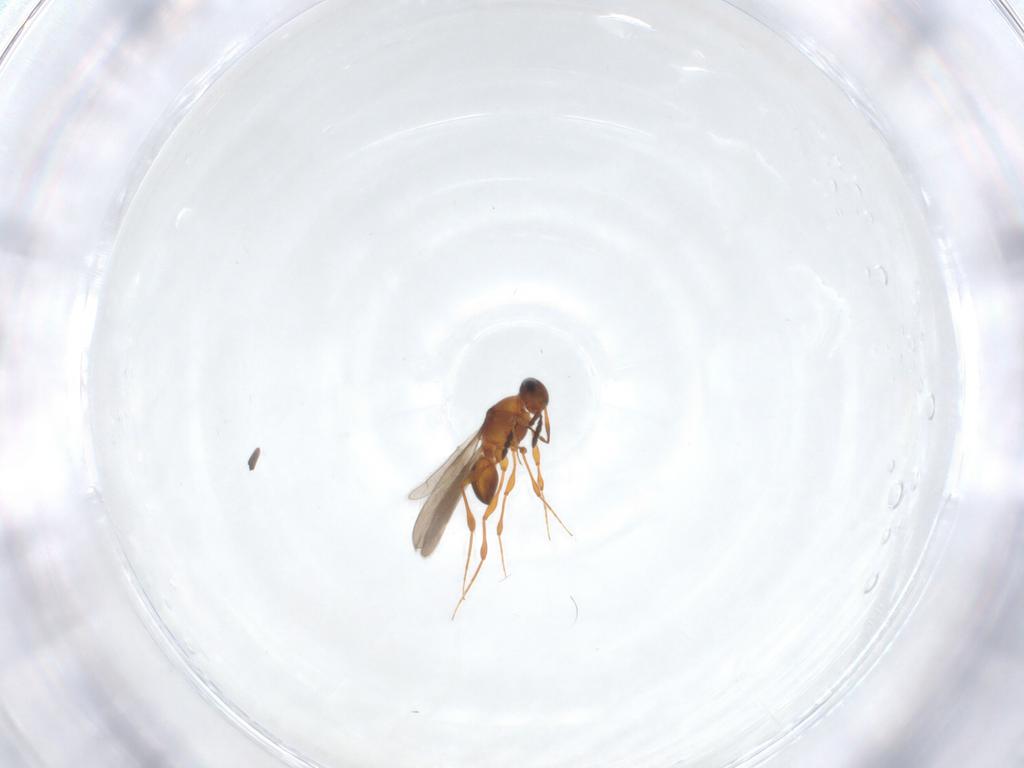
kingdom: Animalia
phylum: Arthropoda
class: Insecta
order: Hymenoptera
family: Platygastridae
